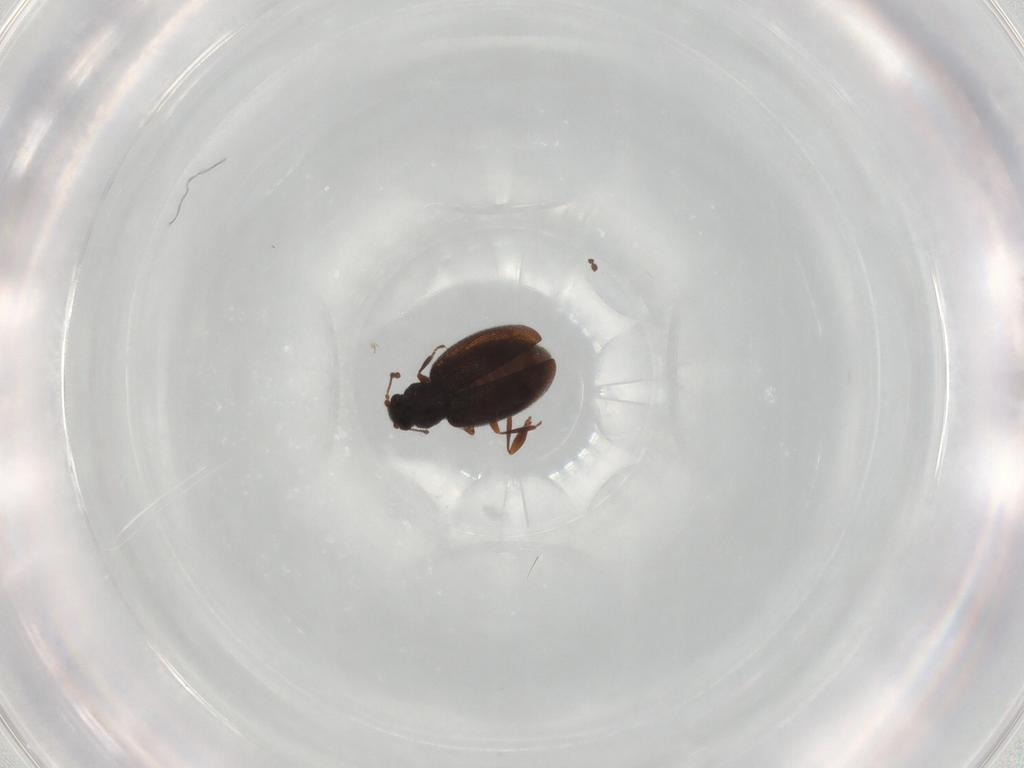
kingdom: Animalia
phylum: Arthropoda
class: Insecta
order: Coleoptera
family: Latridiidae
